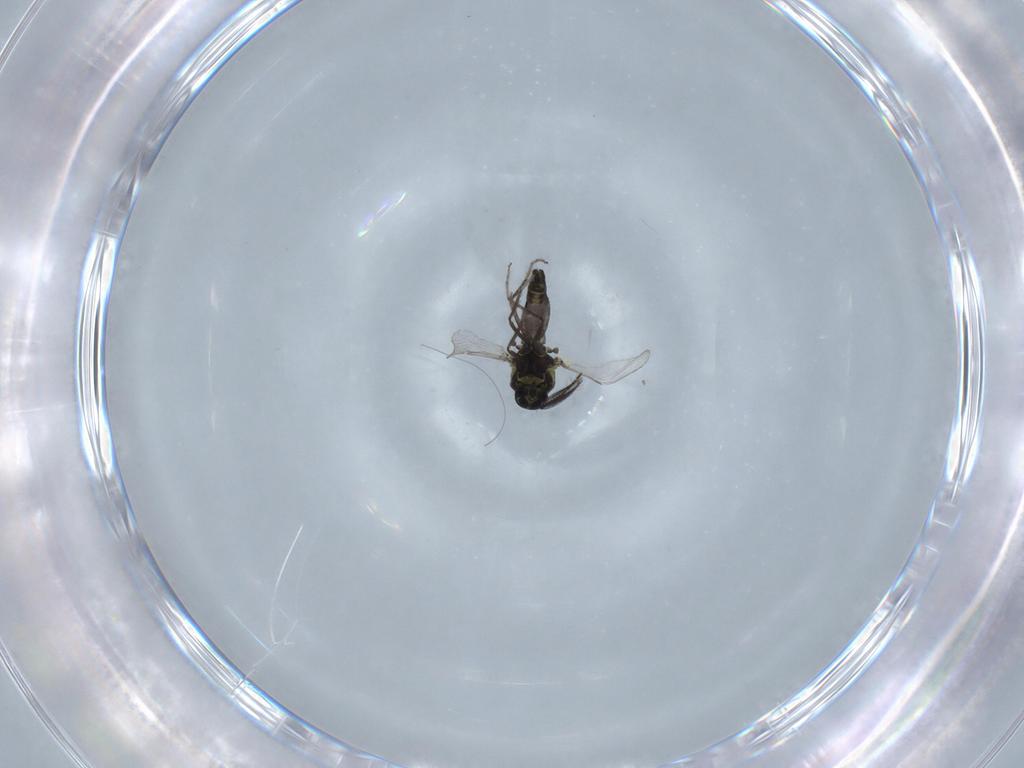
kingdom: Animalia
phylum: Arthropoda
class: Insecta
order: Diptera
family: Ceratopogonidae
